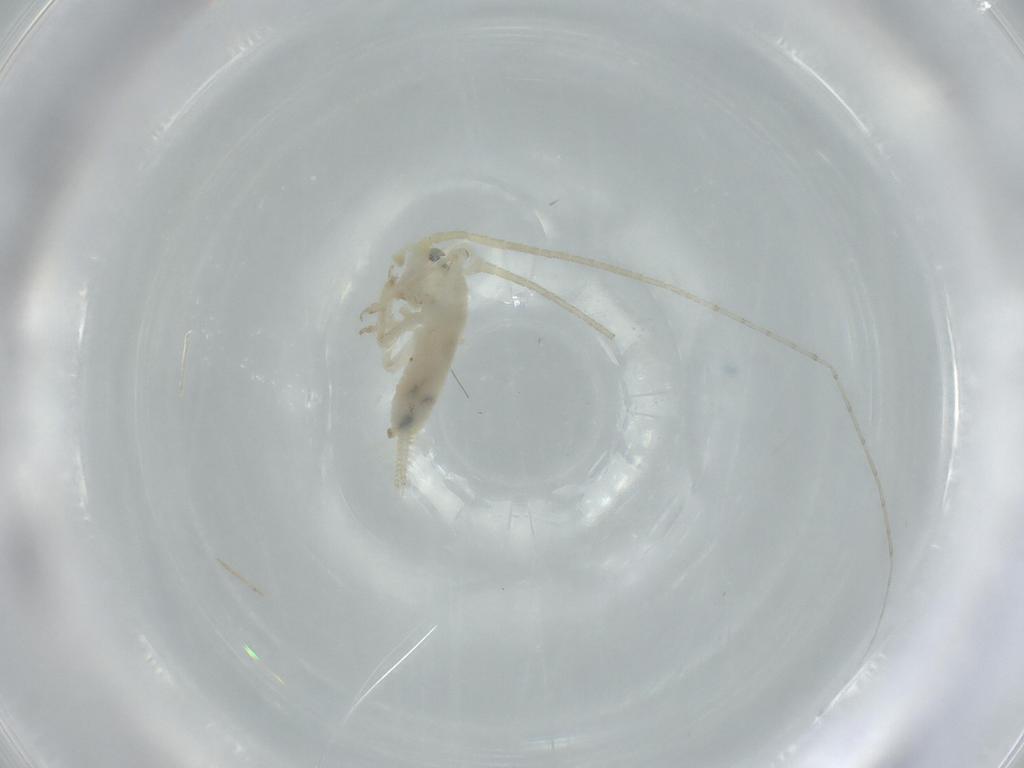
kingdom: Animalia
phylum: Arthropoda
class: Insecta
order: Orthoptera
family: Trigonidiidae
